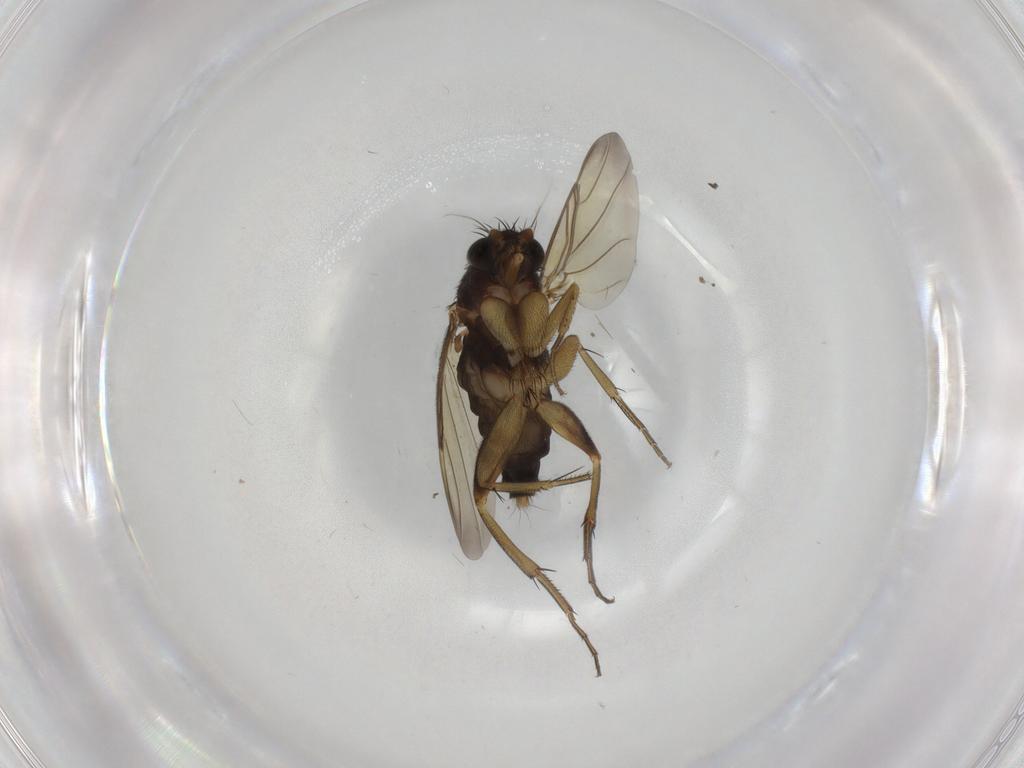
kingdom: Animalia
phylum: Arthropoda
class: Insecta
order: Diptera
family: Phoridae
